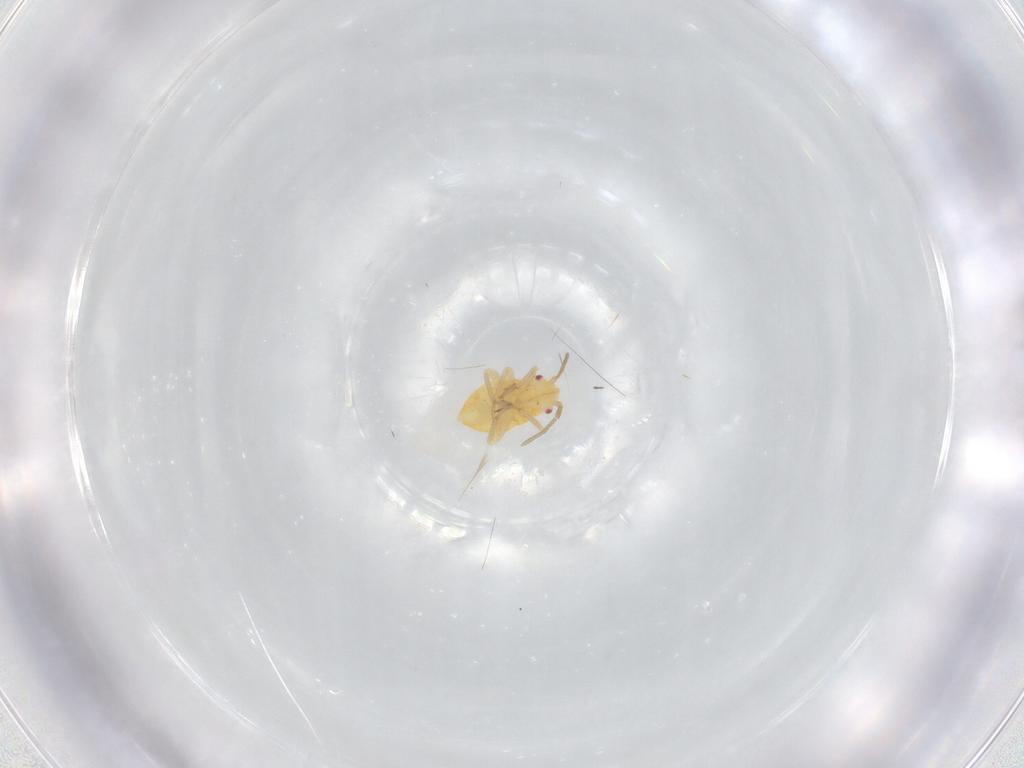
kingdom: Animalia
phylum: Arthropoda
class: Insecta
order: Hemiptera
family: Miridae
